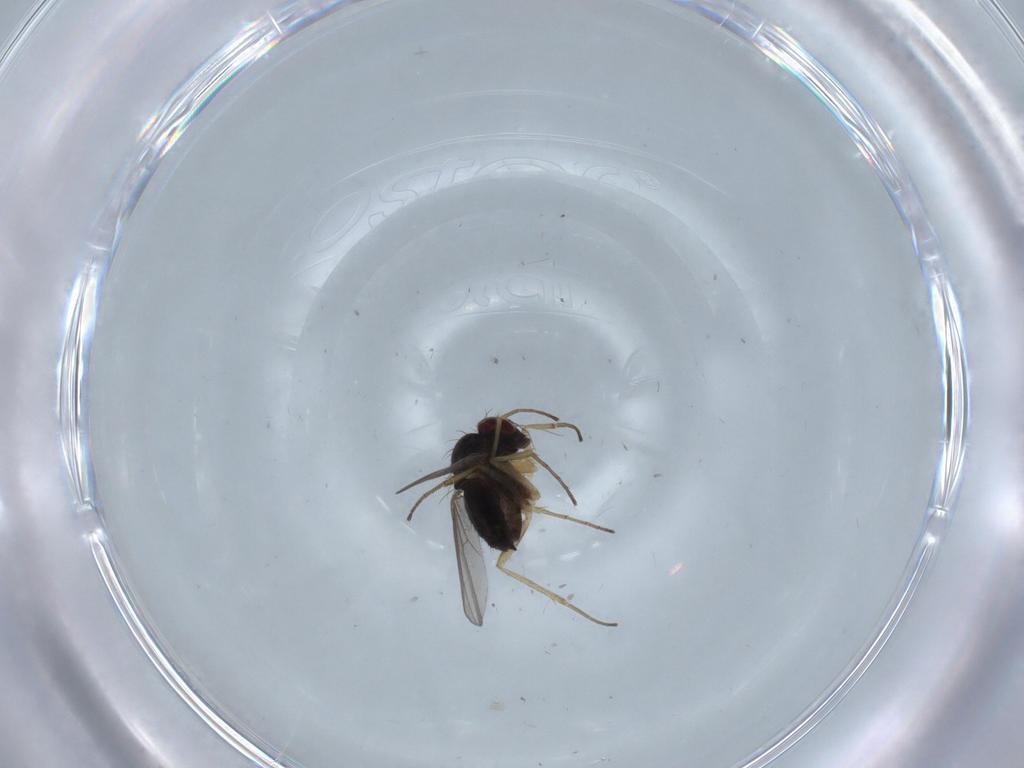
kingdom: Animalia
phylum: Arthropoda
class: Insecta
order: Diptera
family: Dolichopodidae
